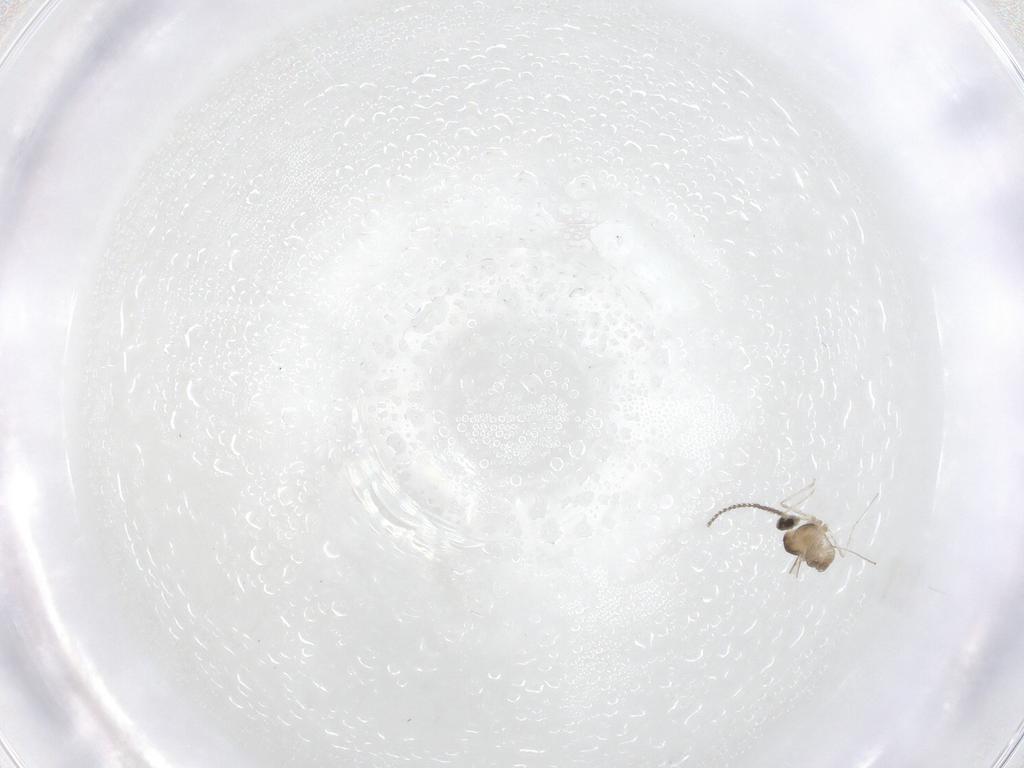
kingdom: Animalia
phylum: Arthropoda
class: Insecta
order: Diptera
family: Cecidomyiidae
